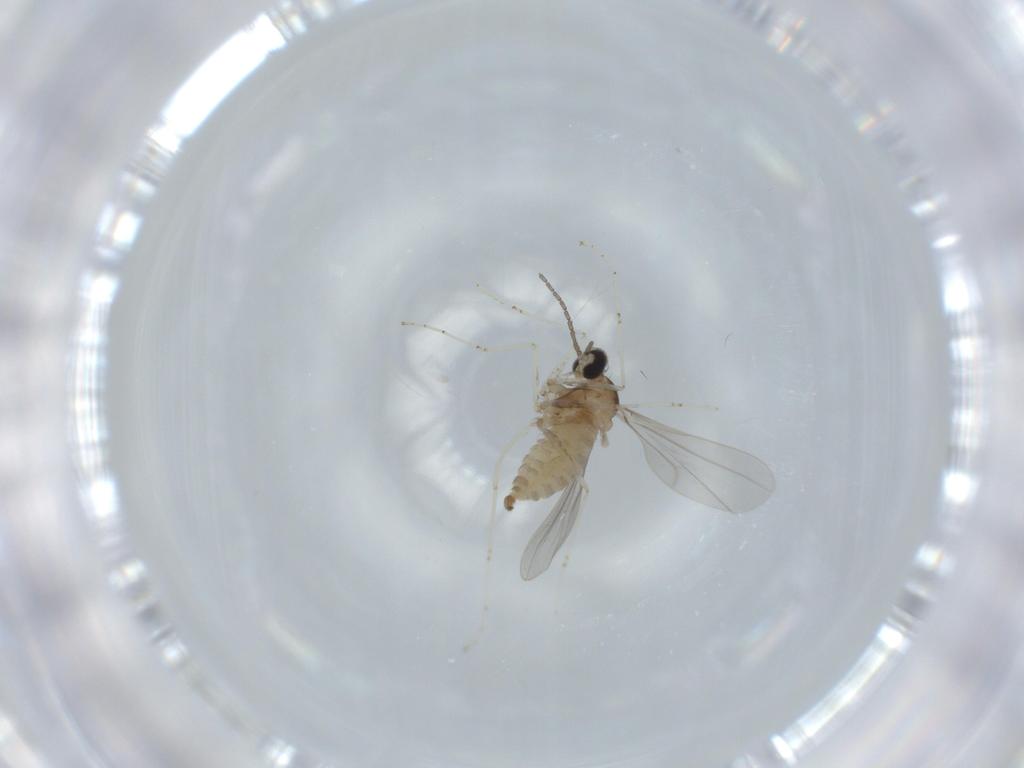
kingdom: Animalia
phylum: Arthropoda
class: Insecta
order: Diptera
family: Cecidomyiidae
